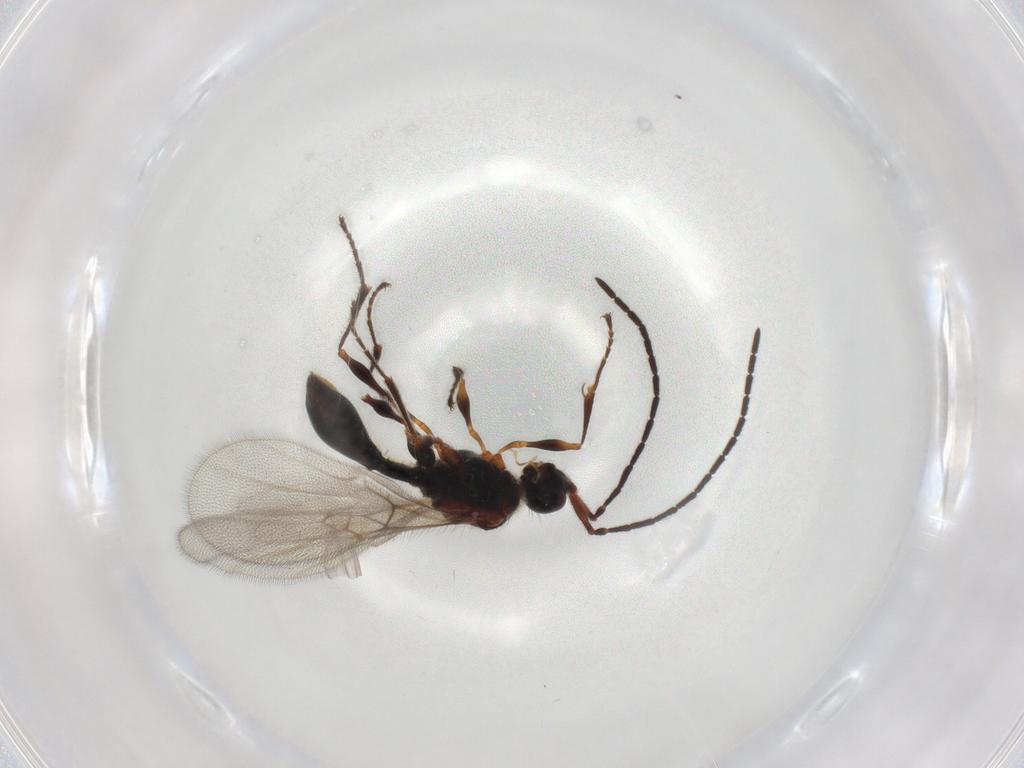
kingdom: Animalia
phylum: Arthropoda
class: Insecta
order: Hymenoptera
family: Diapriidae
